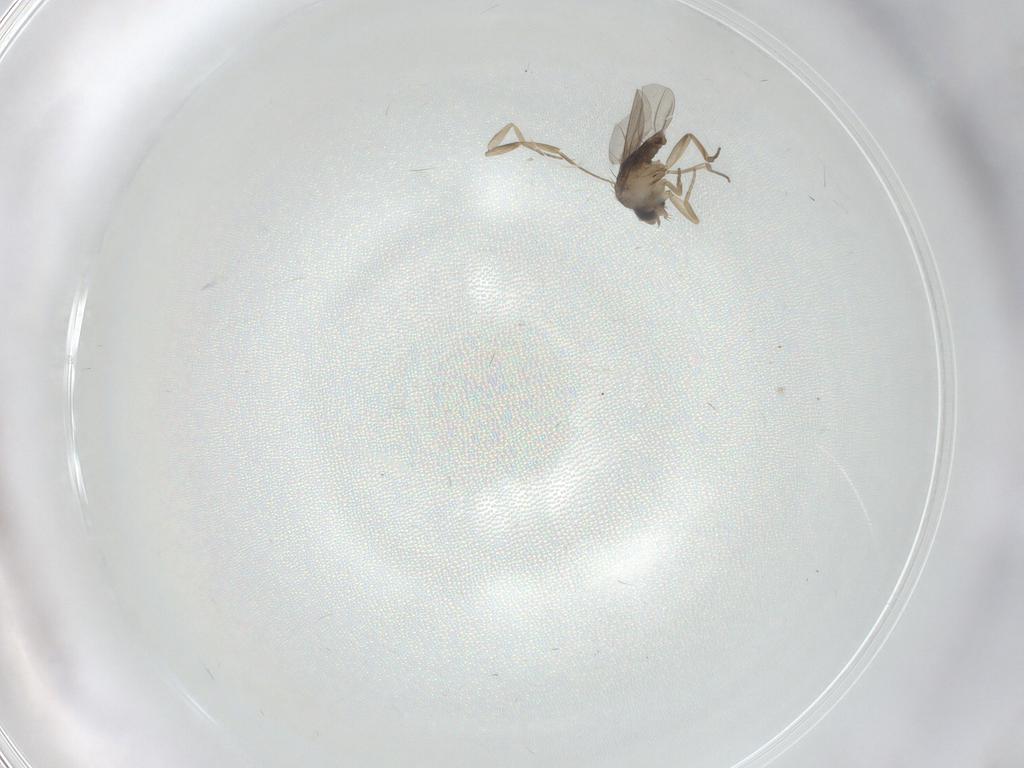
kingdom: Animalia
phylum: Arthropoda
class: Insecta
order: Diptera
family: Phoridae
